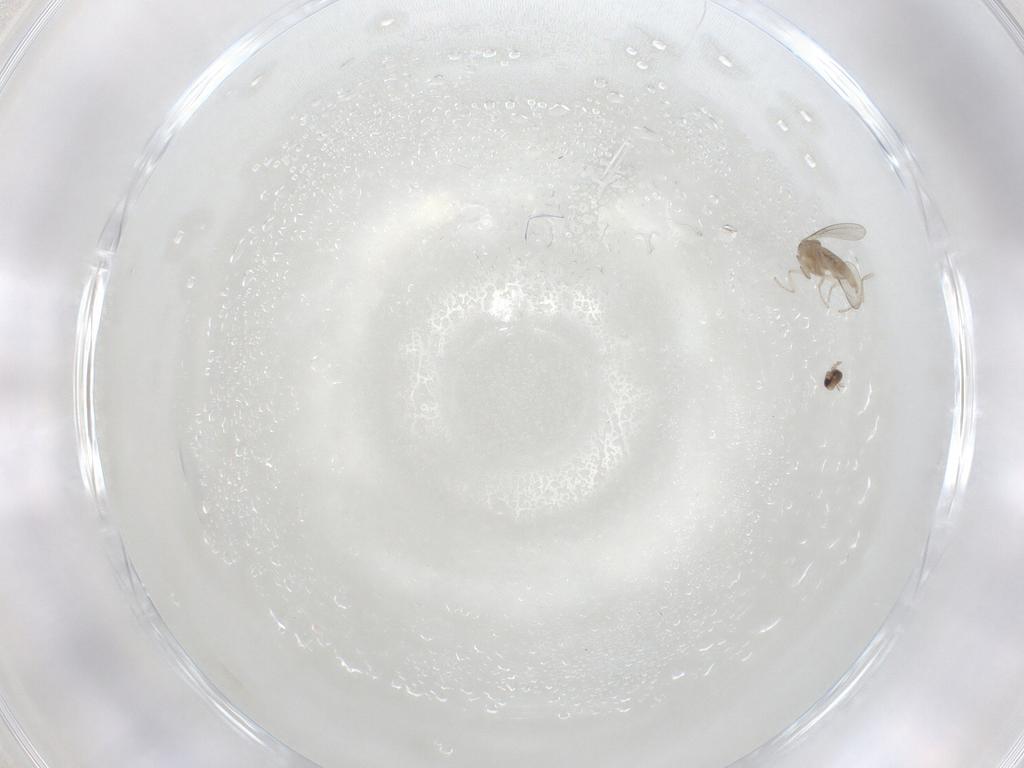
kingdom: Animalia
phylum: Arthropoda
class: Insecta
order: Diptera
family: Cecidomyiidae
